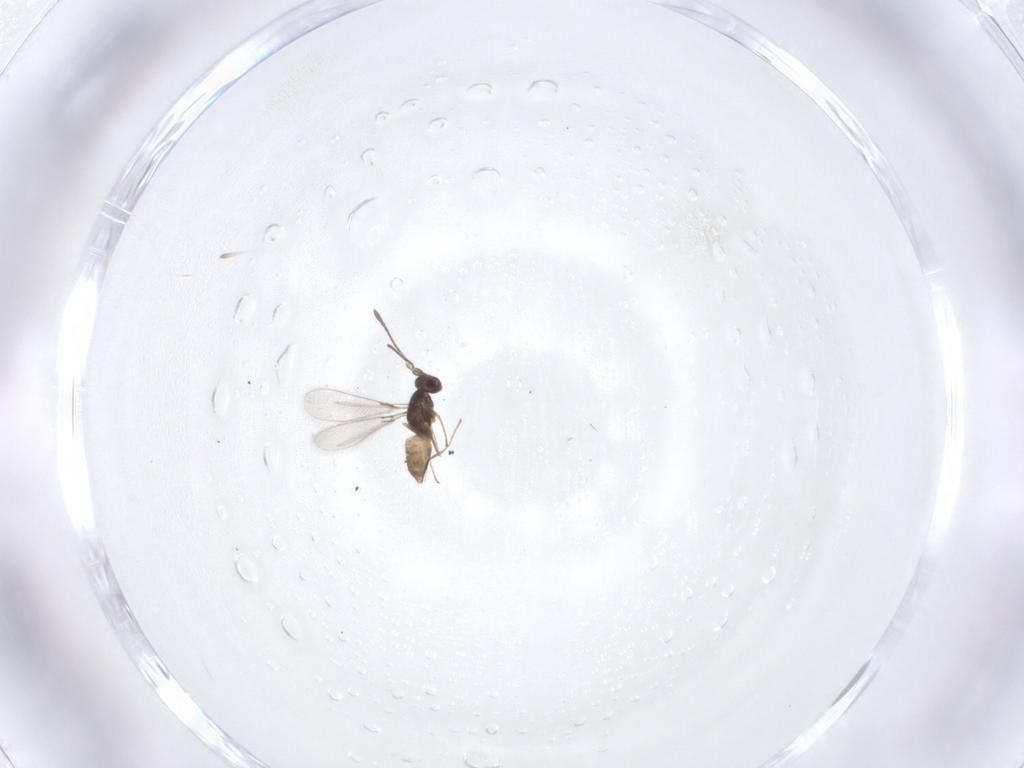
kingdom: Animalia
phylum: Arthropoda
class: Insecta
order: Hymenoptera
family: Mymaridae
